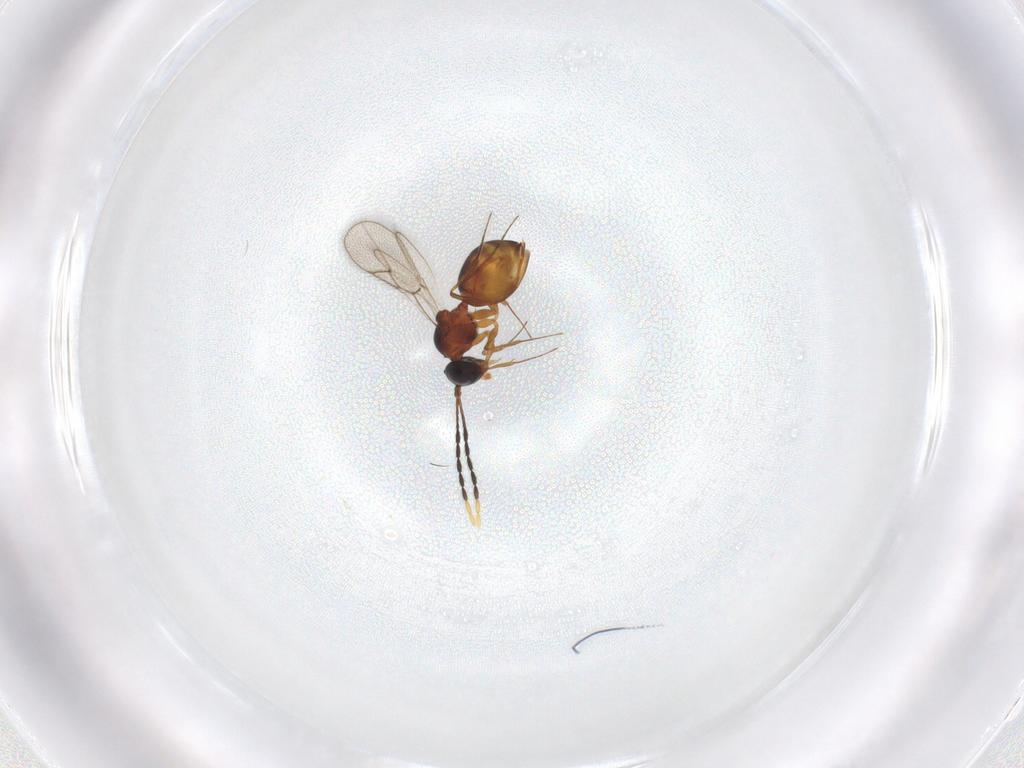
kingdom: Animalia
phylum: Arthropoda
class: Insecta
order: Hymenoptera
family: Figitidae
